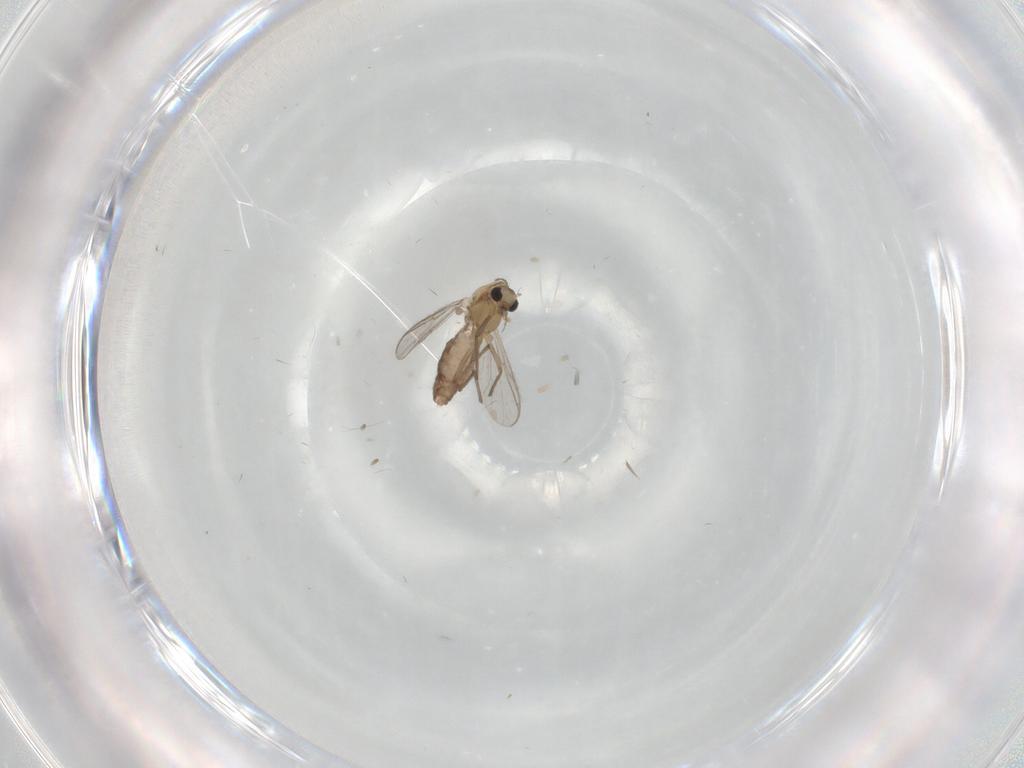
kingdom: Animalia
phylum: Arthropoda
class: Insecta
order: Diptera
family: Chironomidae
